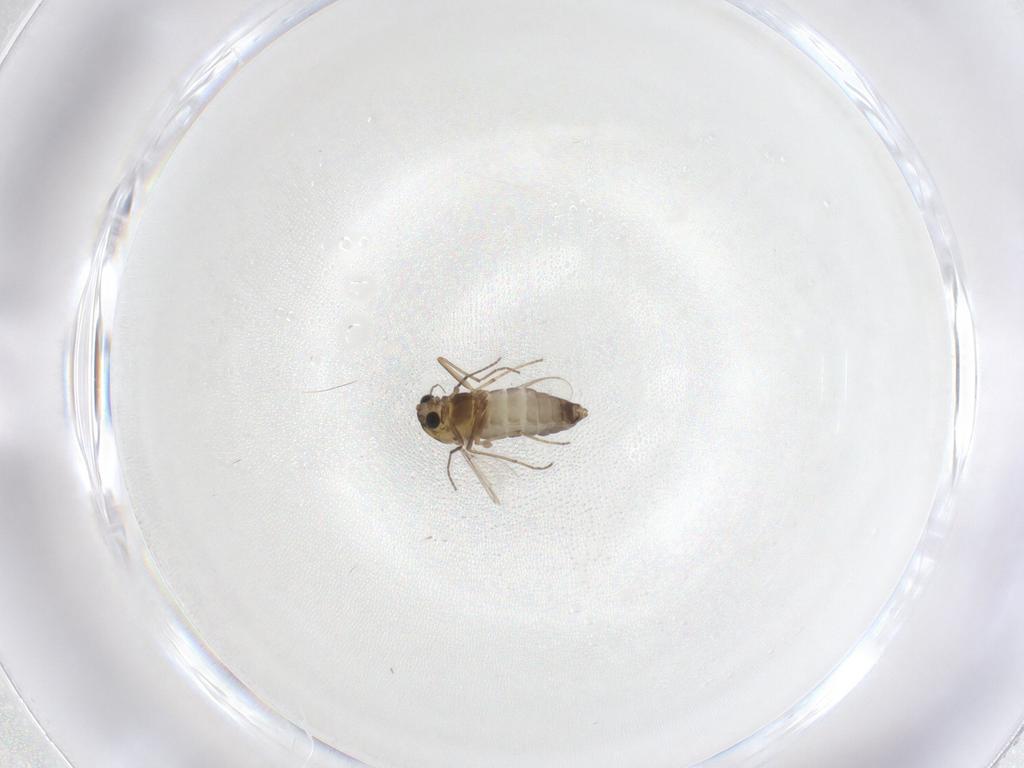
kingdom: Animalia
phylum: Arthropoda
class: Insecta
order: Diptera
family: Chironomidae
